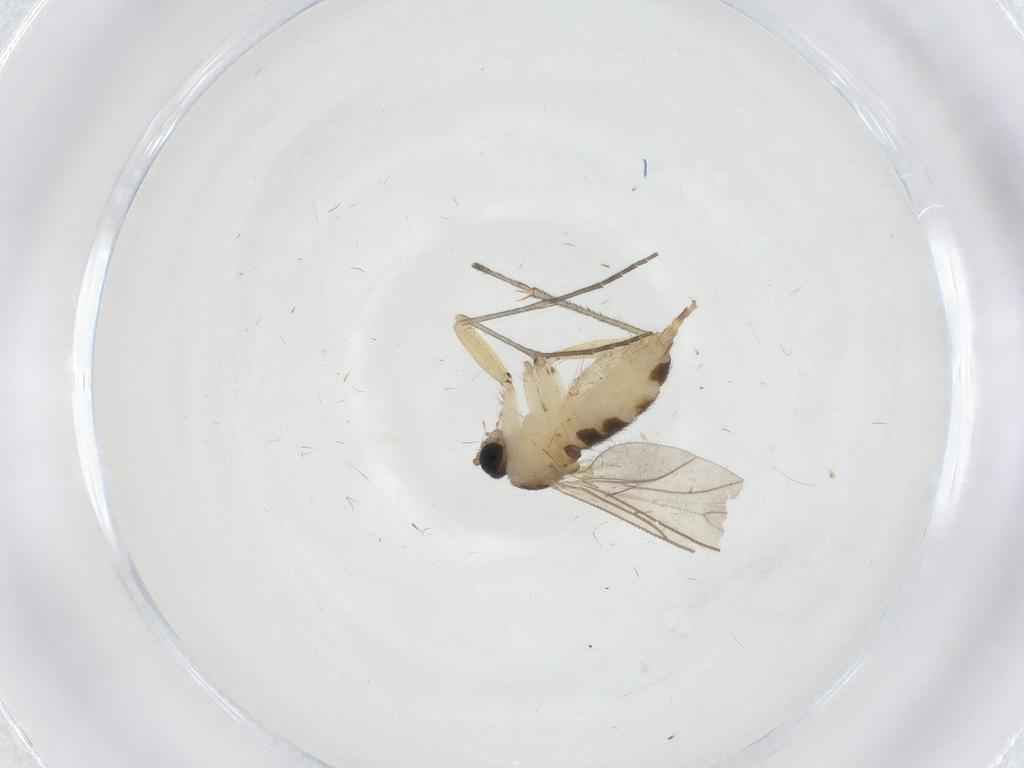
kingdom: Animalia
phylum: Arthropoda
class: Insecta
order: Diptera
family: Sciaridae
